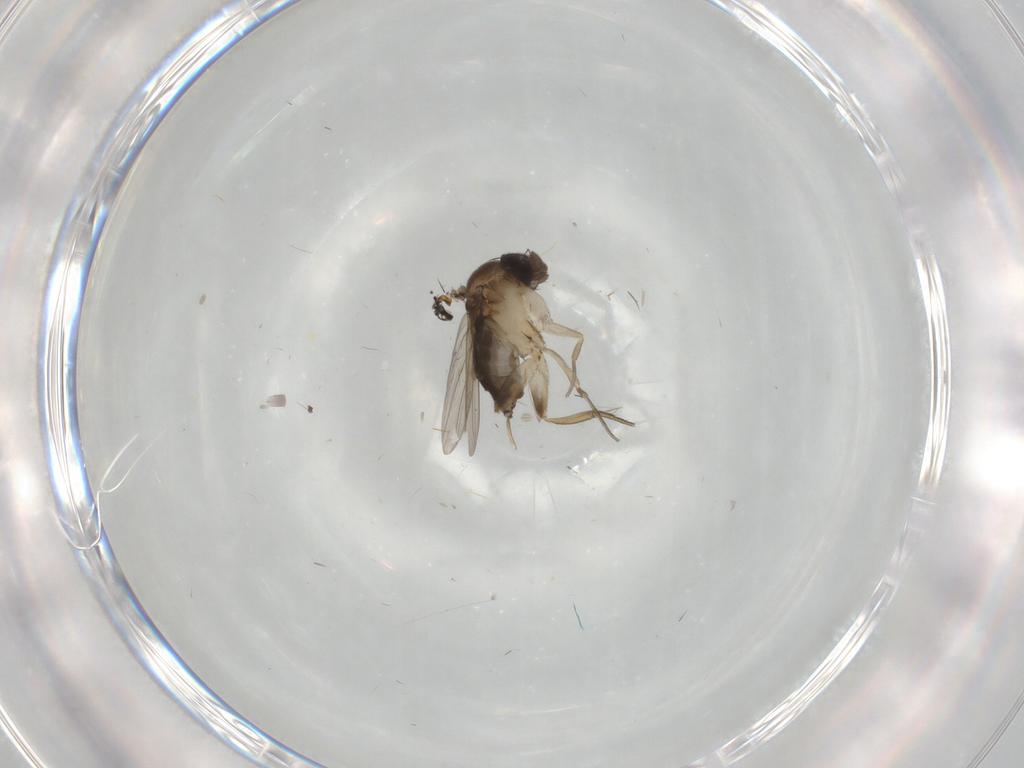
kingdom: Animalia
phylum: Arthropoda
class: Insecta
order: Diptera
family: Phoridae
